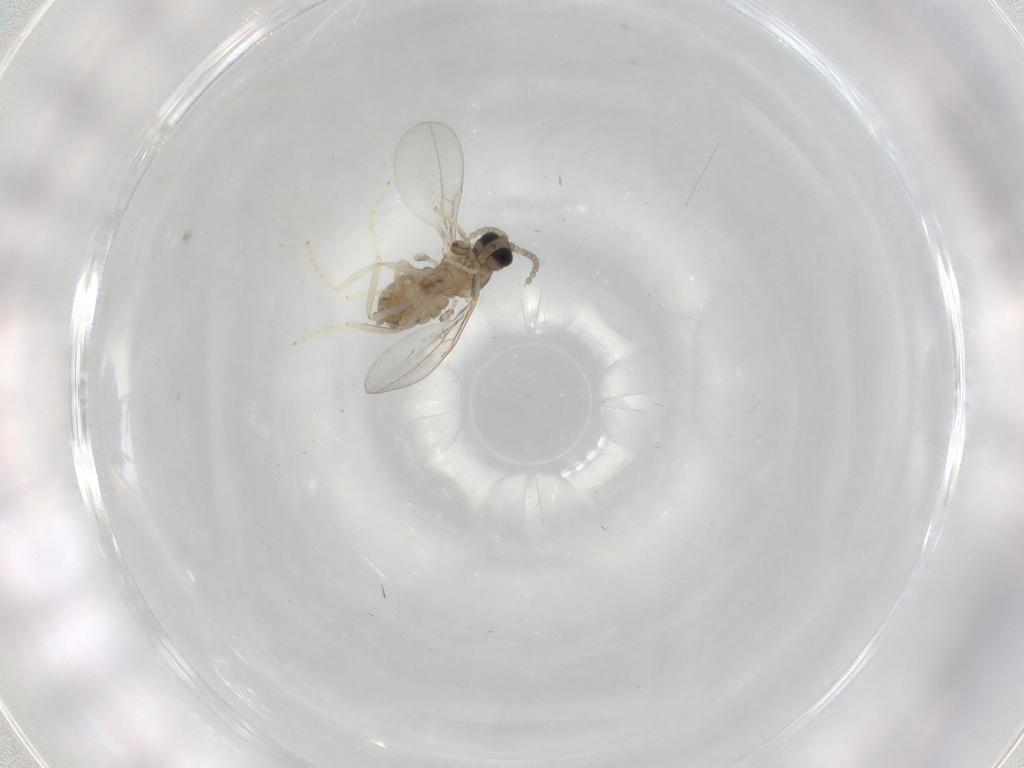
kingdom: Animalia
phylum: Arthropoda
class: Insecta
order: Diptera
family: Cecidomyiidae
